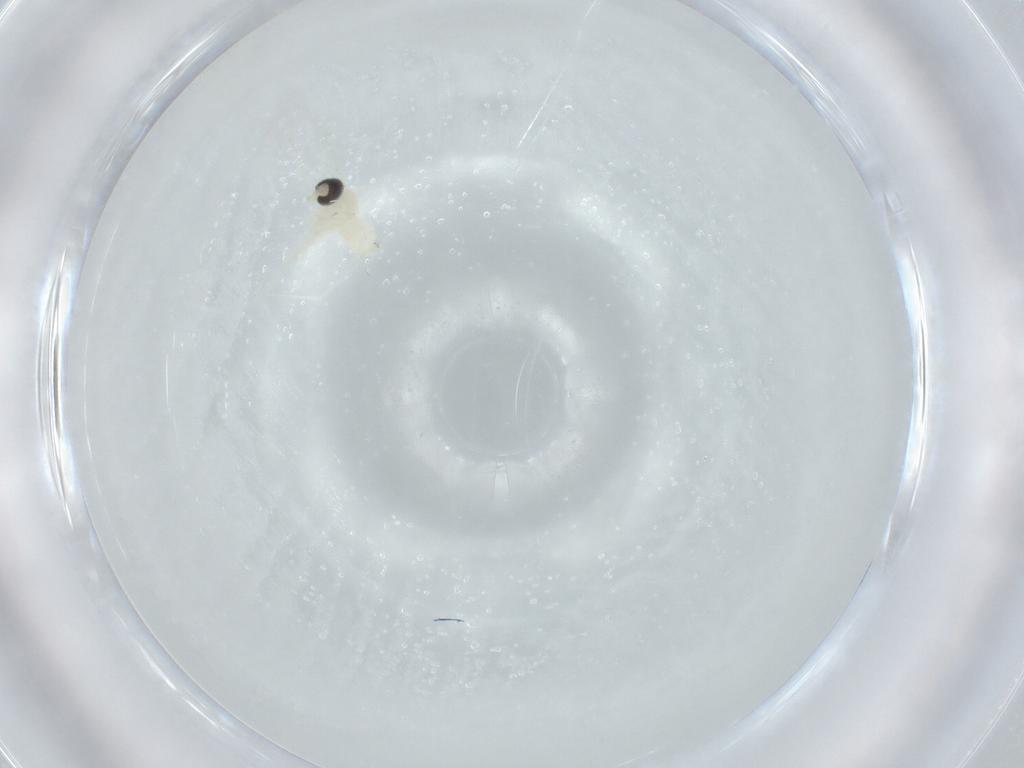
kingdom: Animalia
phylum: Arthropoda
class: Insecta
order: Diptera
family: Cecidomyiidae
